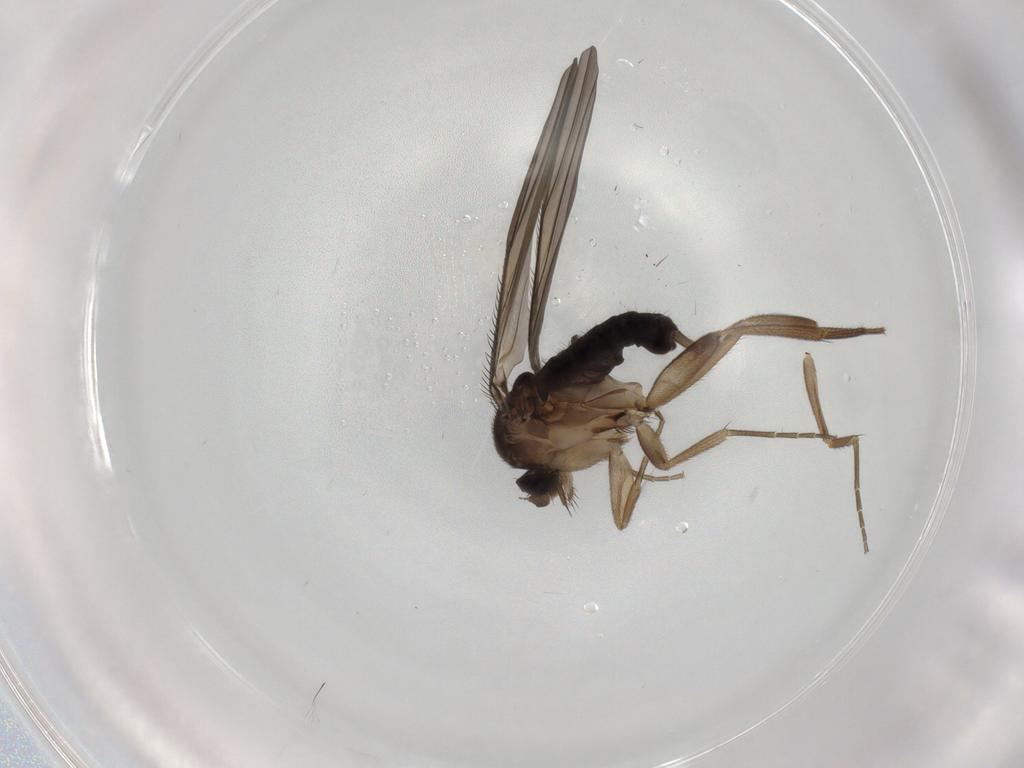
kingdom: Animalia
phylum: Arthropoda
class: Insecta
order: Diptera
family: Phoridae
